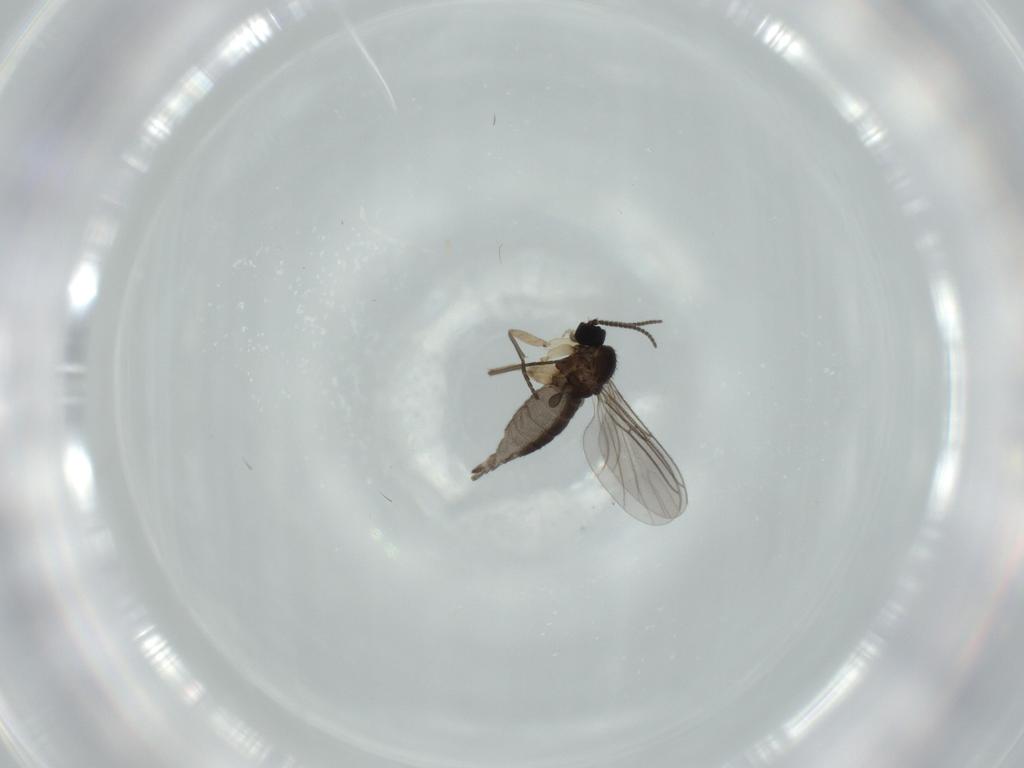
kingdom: Animalia
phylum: Arthropoda
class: Insecta
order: Diptera
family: Sciaridae
